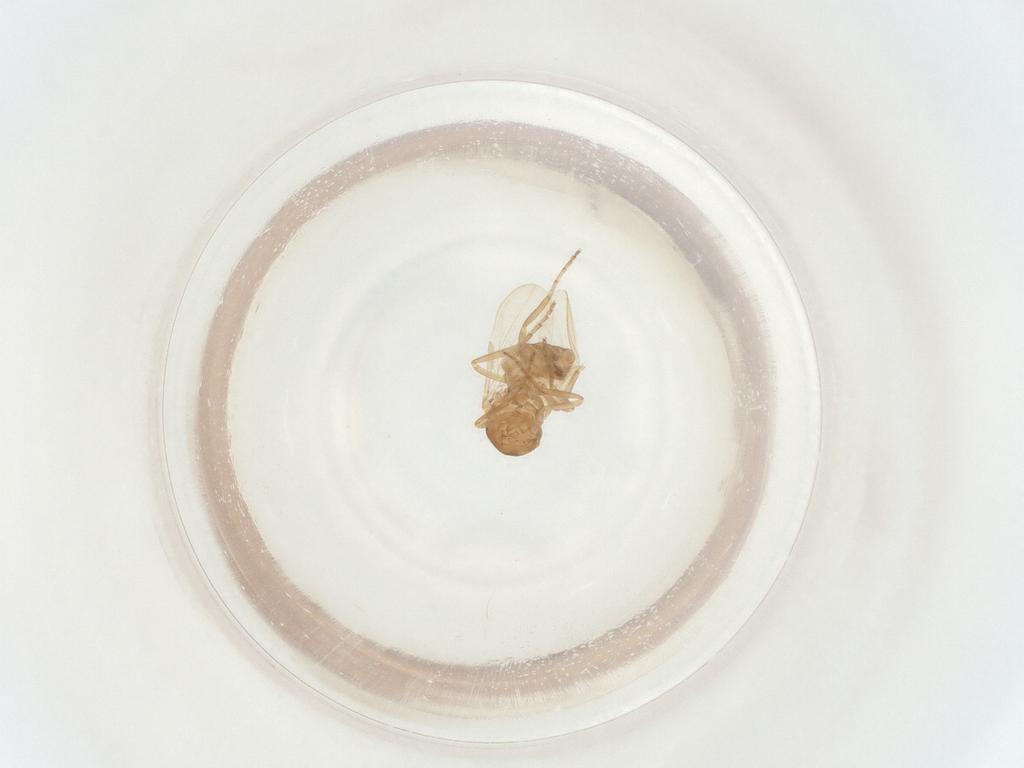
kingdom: Animalia
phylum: Arthropoda
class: Insecta
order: Diptera
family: Ceratopogonidae
